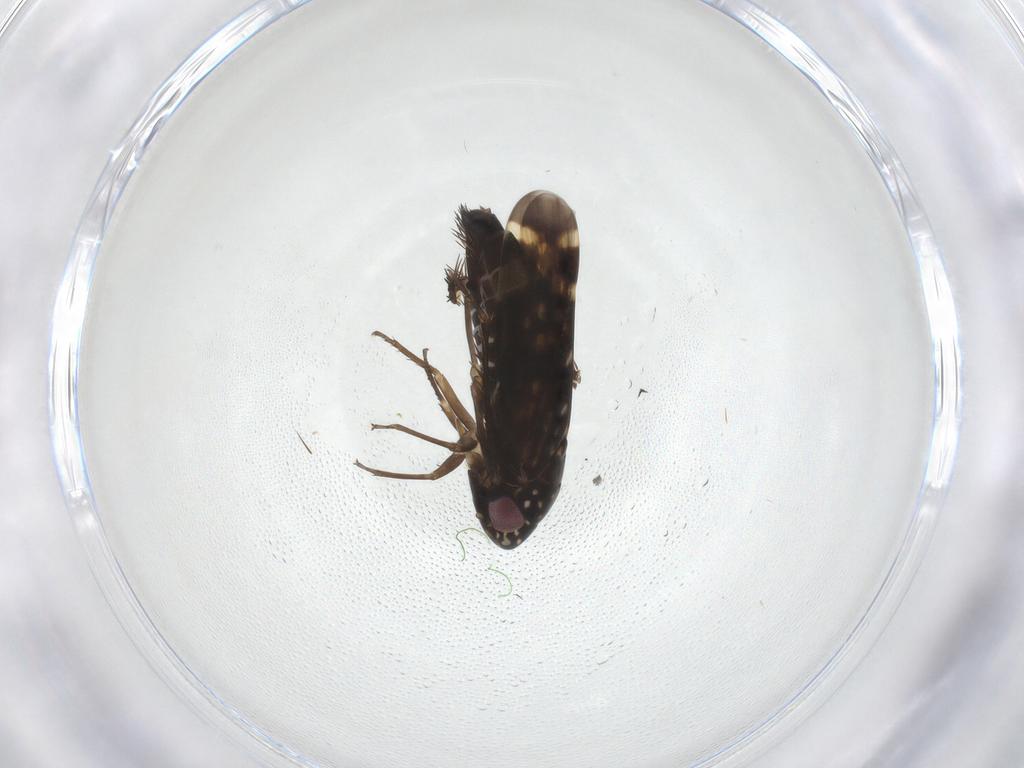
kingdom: Animalia
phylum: Arthropoda
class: Insecta
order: Hemiptera
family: Cicadellidae
